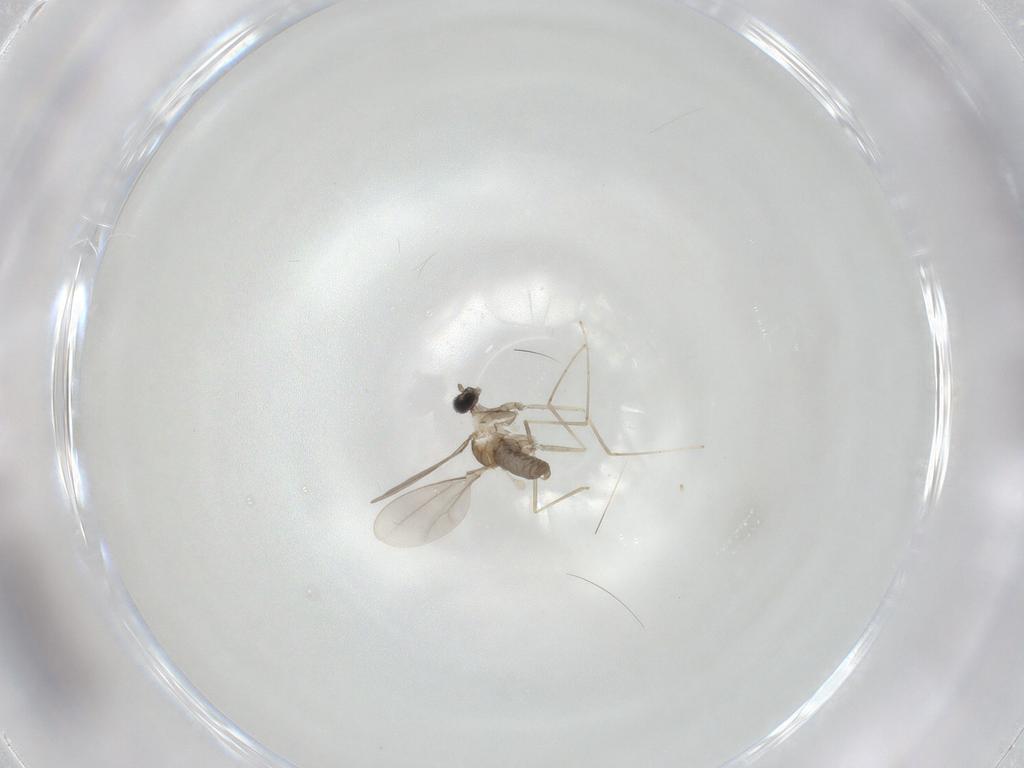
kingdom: Animalia
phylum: Arthropoda
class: Insecta
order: Diptera
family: Cecidomyiidae
